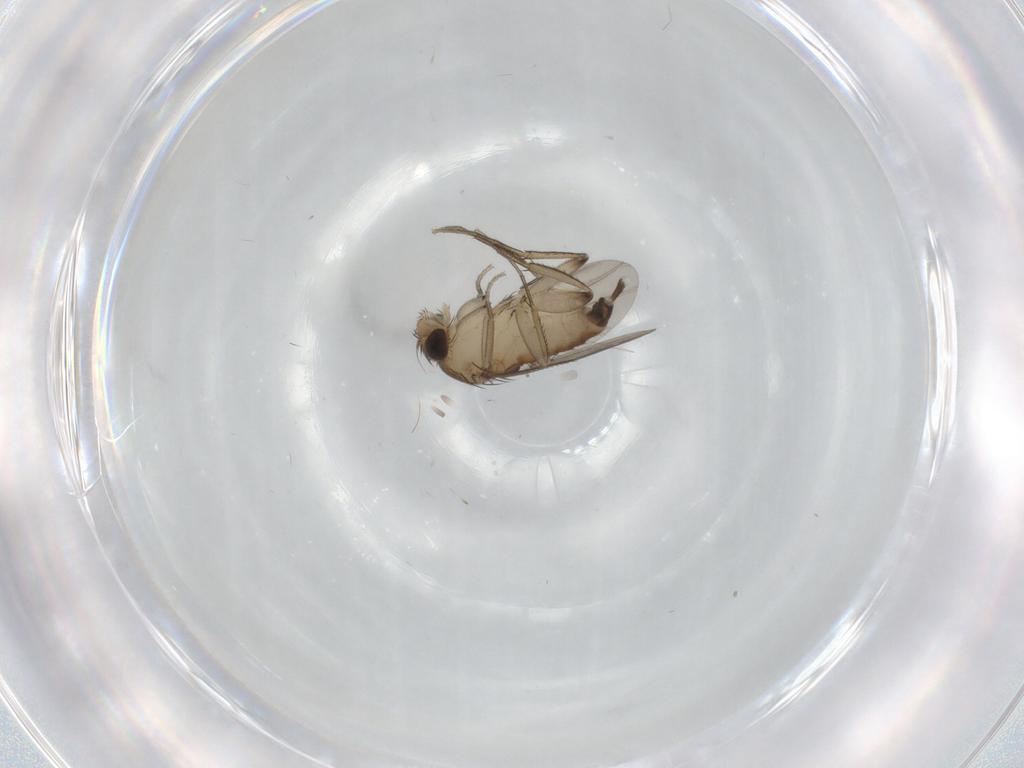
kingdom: Animalia
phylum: Arthropoda
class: Insecta
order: Diptera
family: Phoridae
